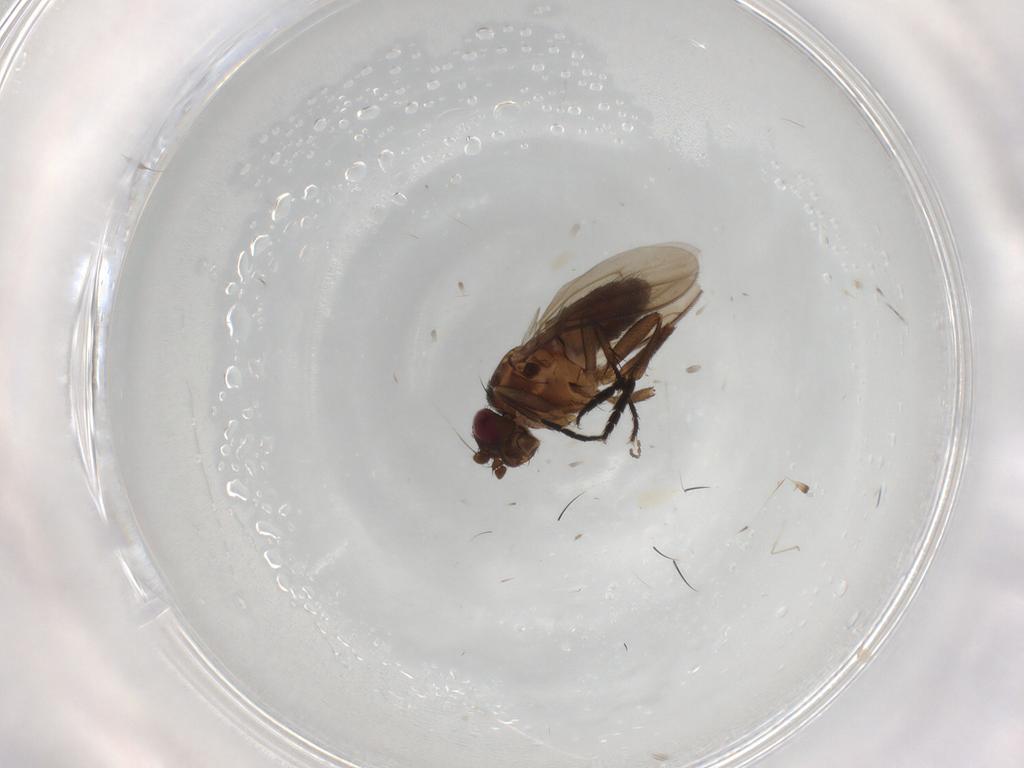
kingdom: Animalia
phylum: Arthropoda
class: Insecta
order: Diptera
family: Sphaeroceridae
